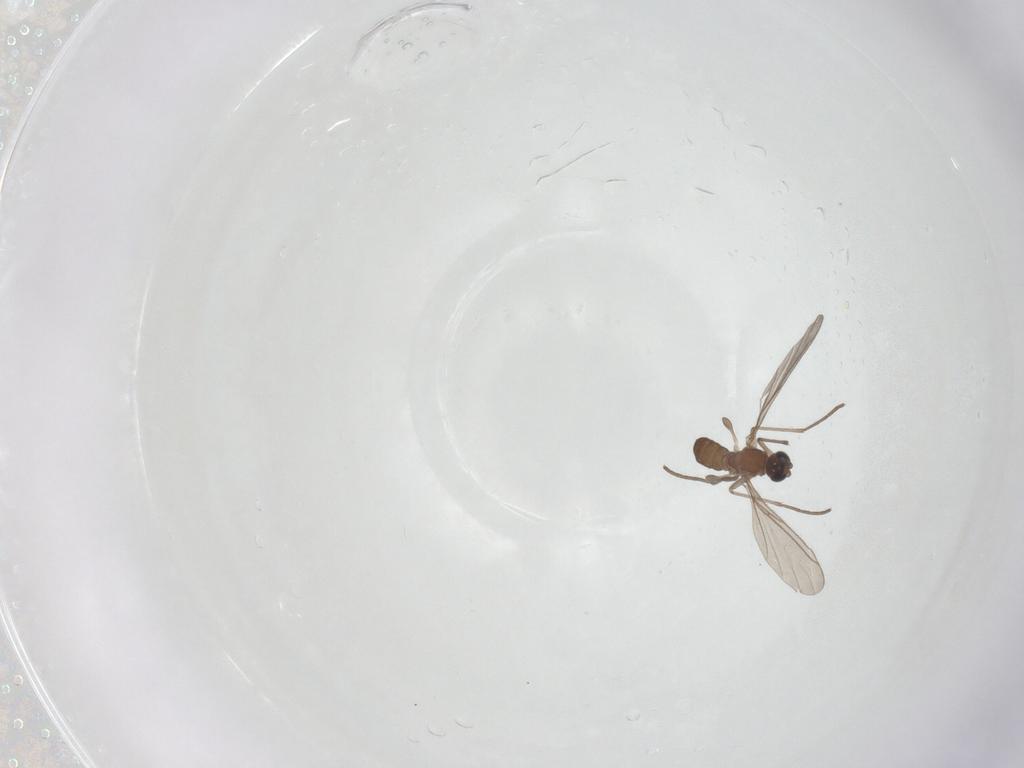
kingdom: Animalia
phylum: Arthropoda
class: Insecta
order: Diptera
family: Sciaridae
